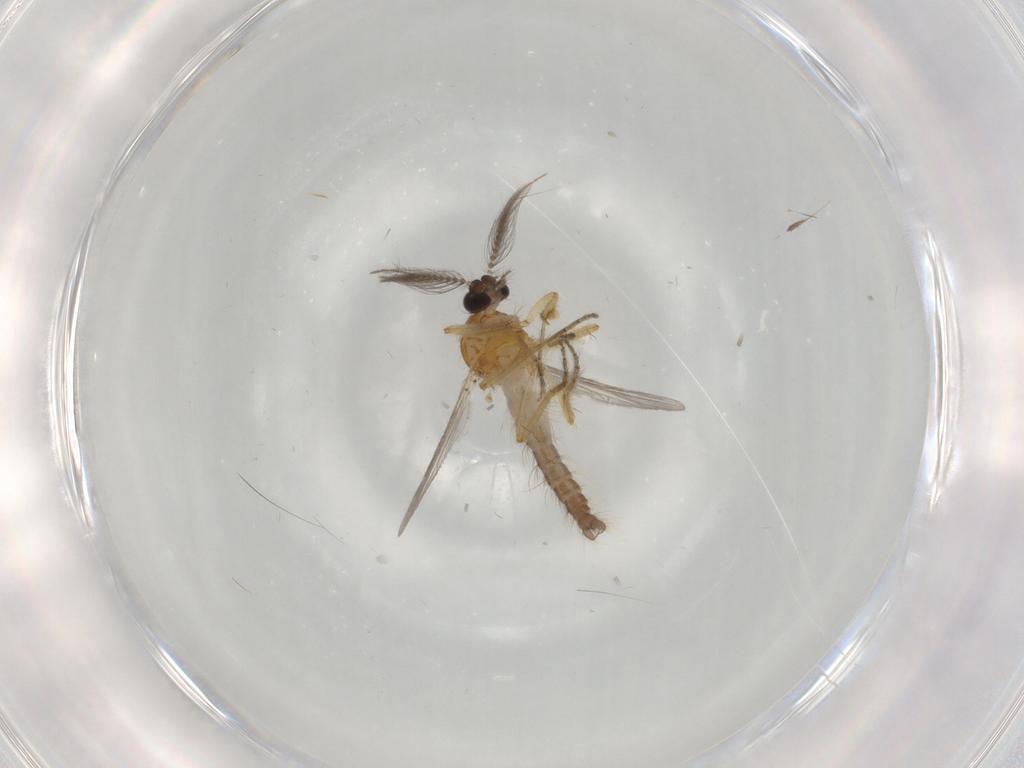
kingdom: Animalia
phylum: Arthropoda
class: Insecta
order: Diptera
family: Ceratopogonidae
